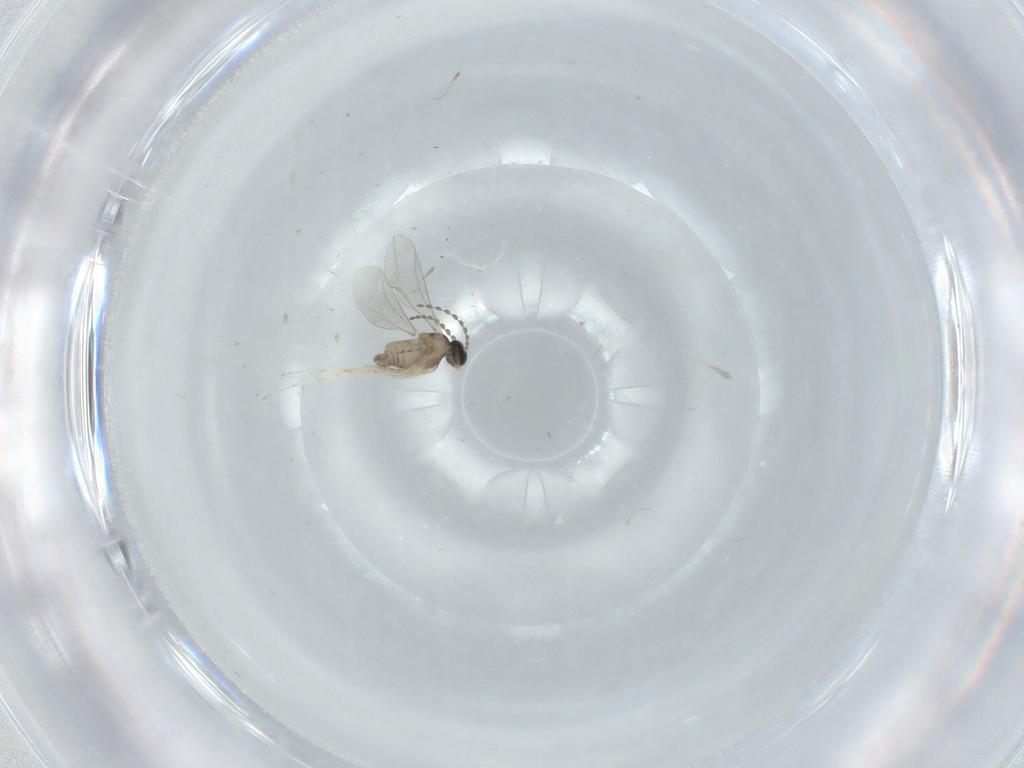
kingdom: Animalia
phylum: Arthropoda
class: Insecta
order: Diptera
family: Cecidomyiidae
